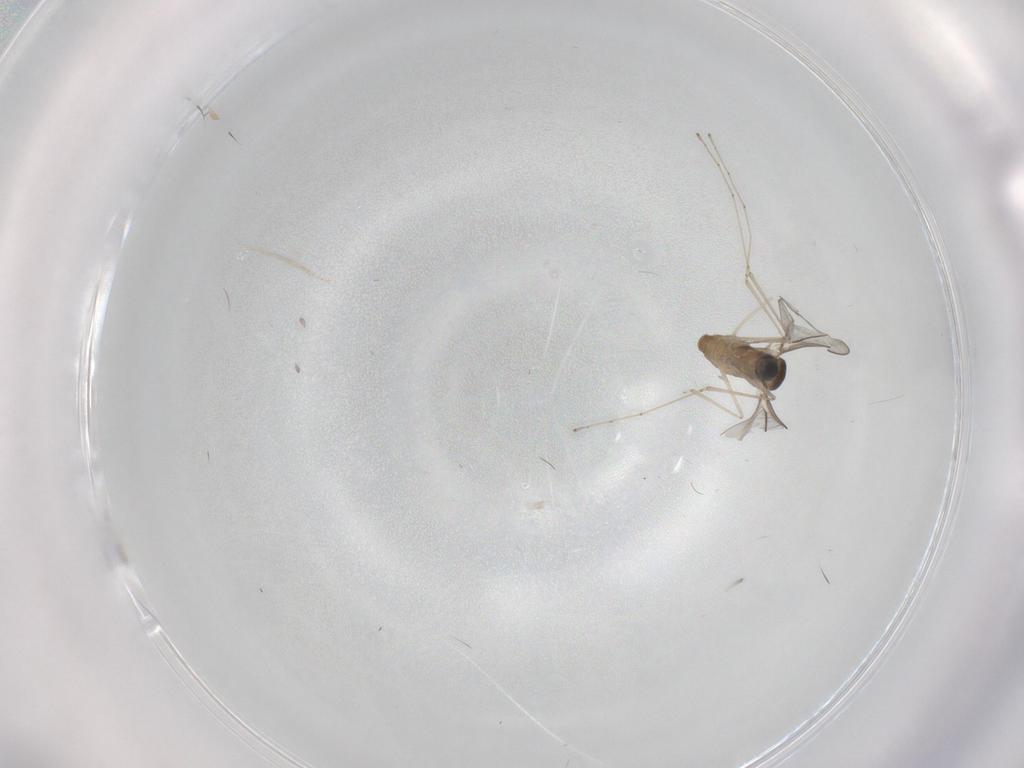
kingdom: Animalia
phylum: Arthropoda
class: Insecta
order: Diptera
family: Cecidomyiidae
